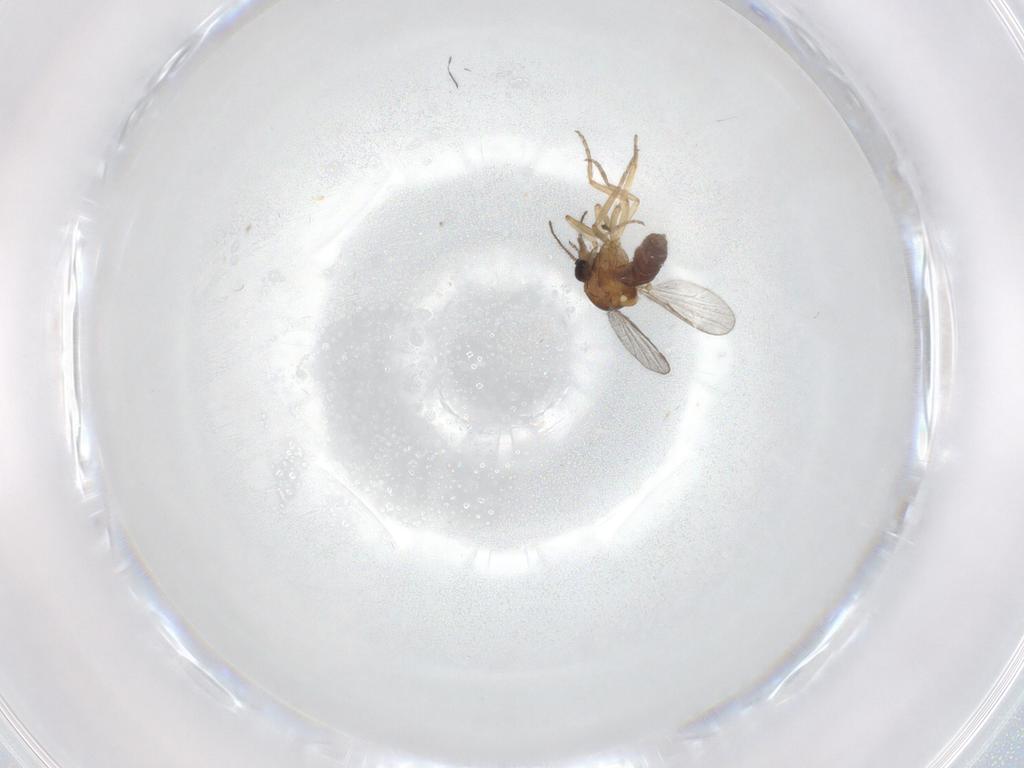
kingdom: Animalia
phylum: Arthropoda
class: Insecta
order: Diptera
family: Ceratopogonidae
